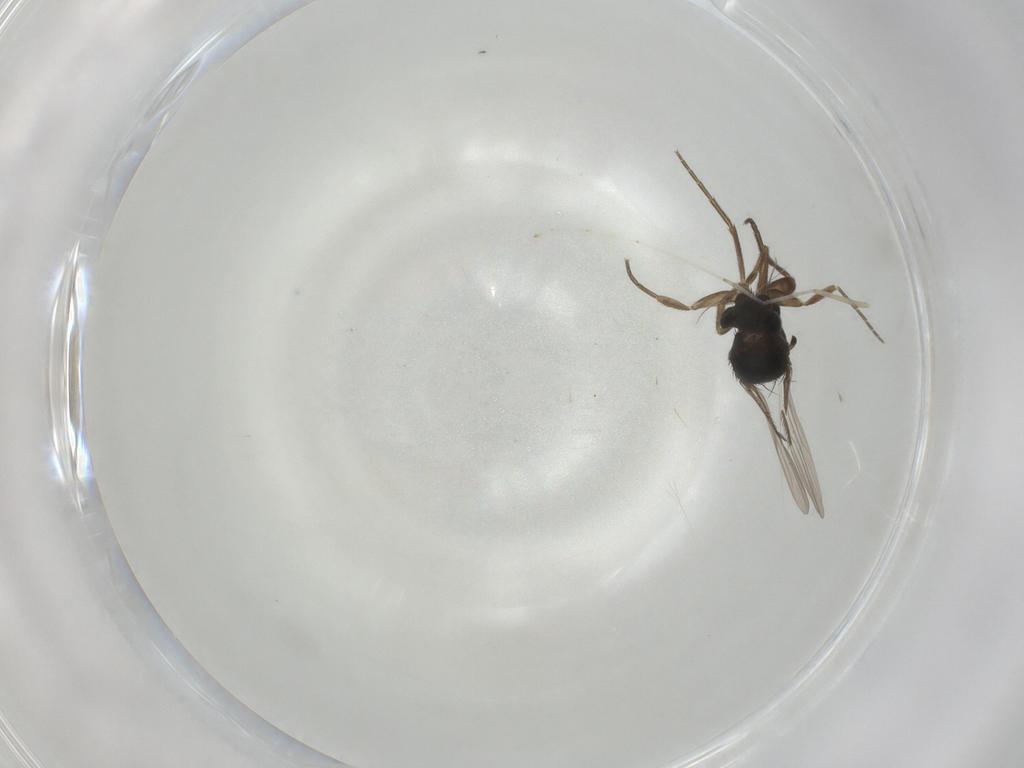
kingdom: Animalia
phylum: Arthropoda
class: Insecta
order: Diptera
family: Phoridae
